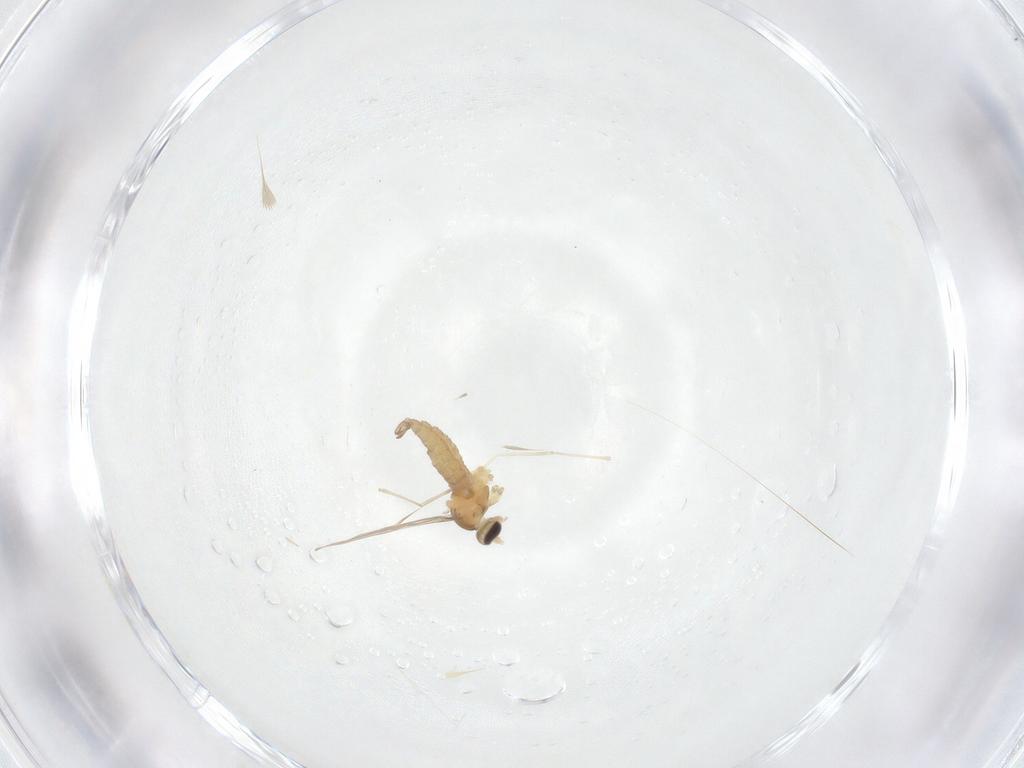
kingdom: Animalia
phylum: Arthropoda
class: Insecta
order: Diptera
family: Cecidomyiidae
